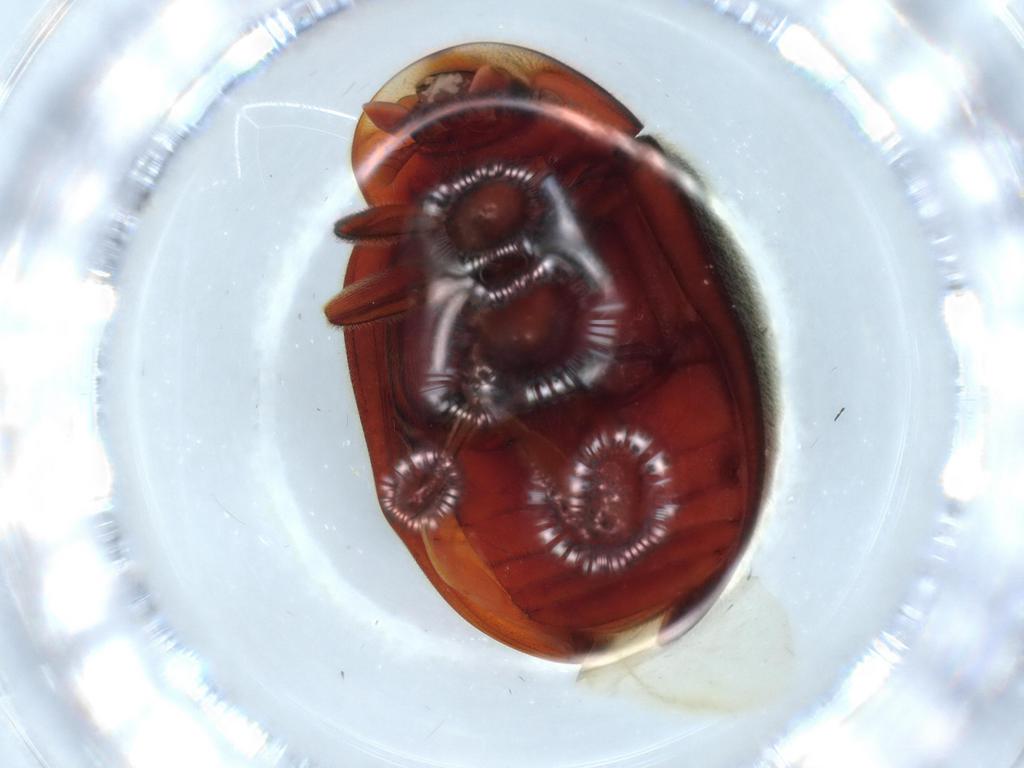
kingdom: Animalia
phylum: Arthropoda
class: Insecta
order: Coleoptera
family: Coccinellidae
